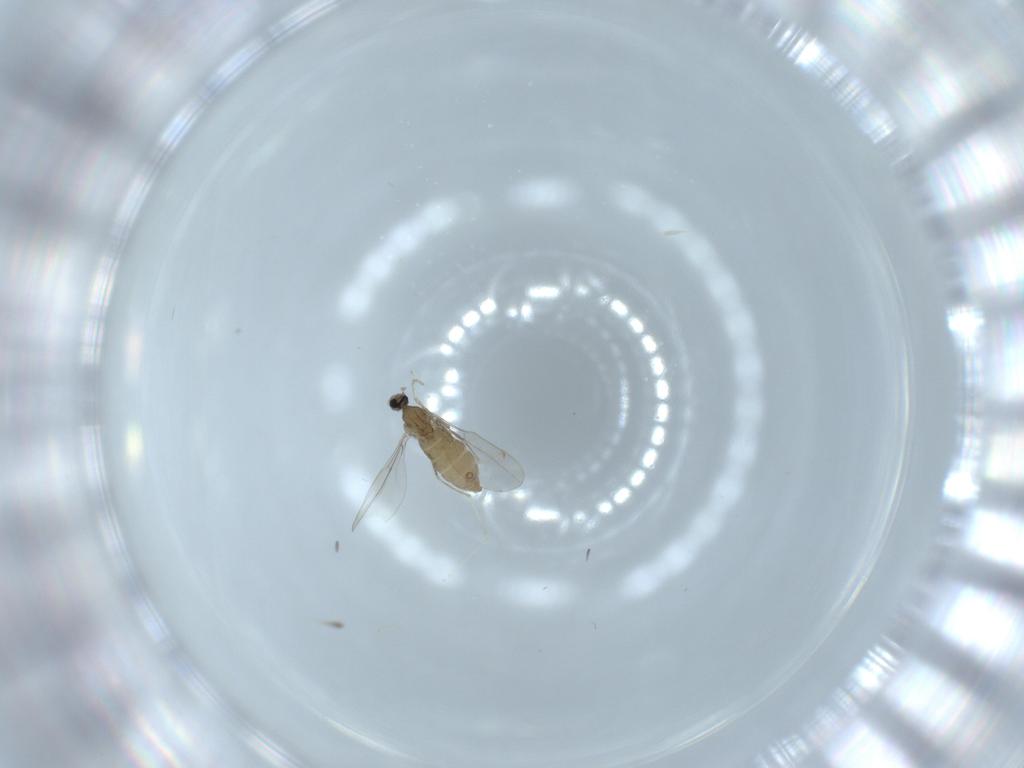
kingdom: Animalia
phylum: Arthropoda
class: Insecta
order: Diptera
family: Cecidomyiidae
